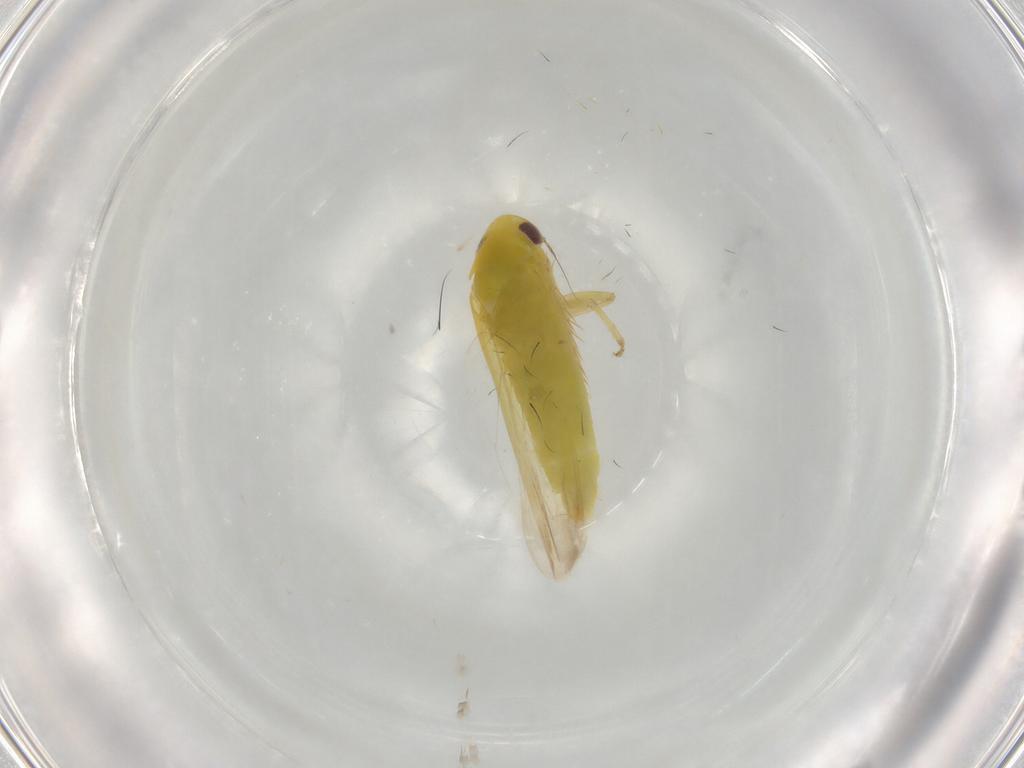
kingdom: Animalia
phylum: Arthropoda
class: Insecta
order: Hemiptera
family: Cicadellidae
